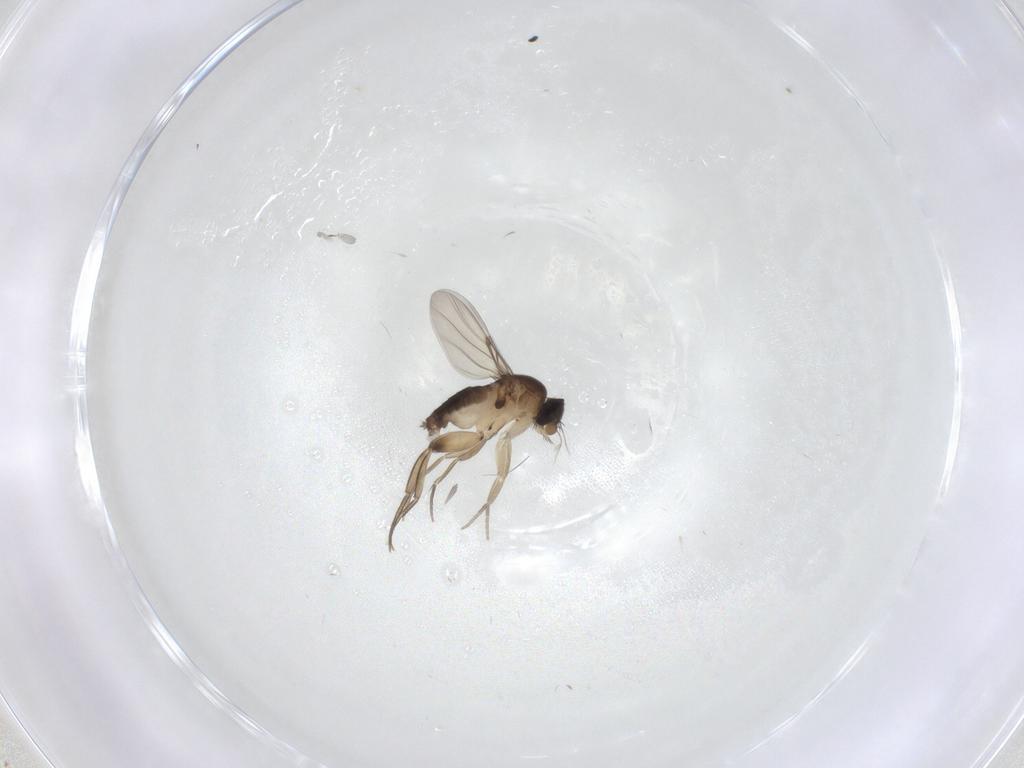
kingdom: Animalia
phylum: Arthropoda
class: Insecta
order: Diptera
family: Phoridae
